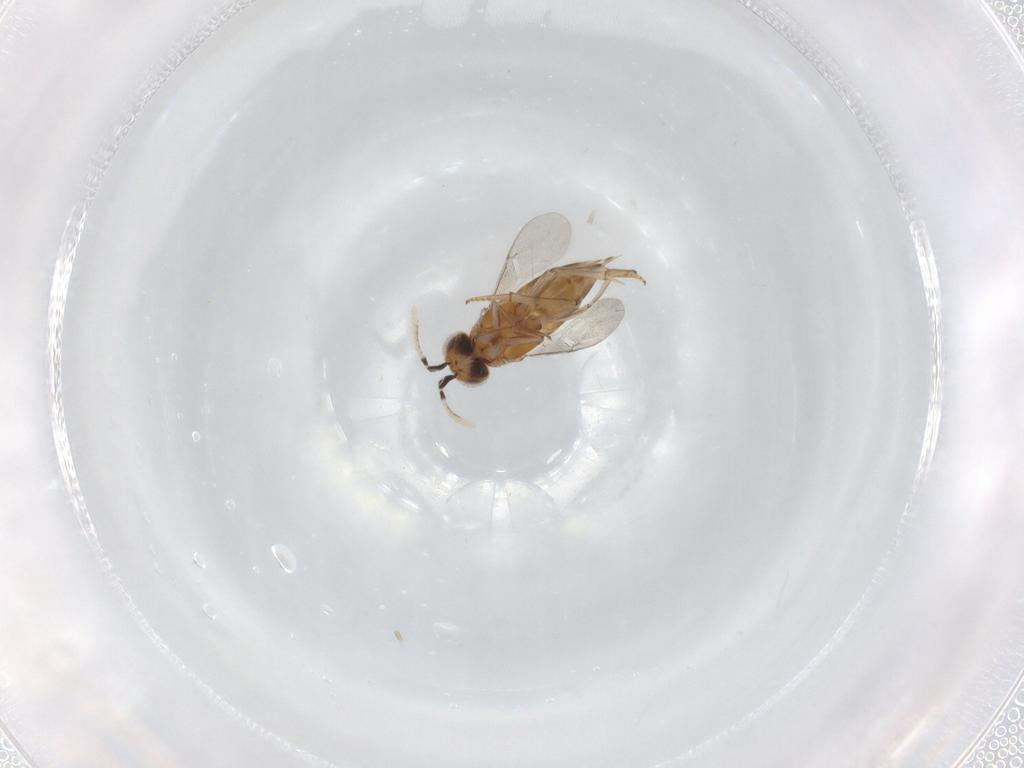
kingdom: Animalia
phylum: Arthropoda
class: Insecta
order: Hymenoptera
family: Encyrtidae
